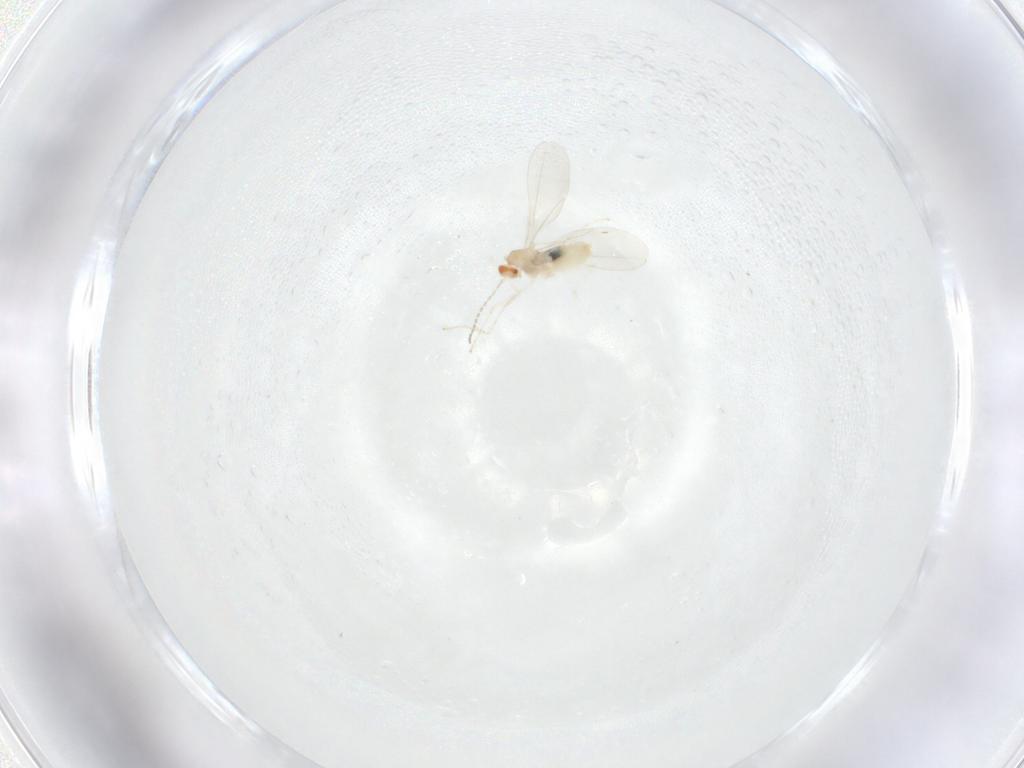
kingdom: Animalia
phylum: Arthropoda
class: Insecta
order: Diptera
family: Cecidomyiidae
